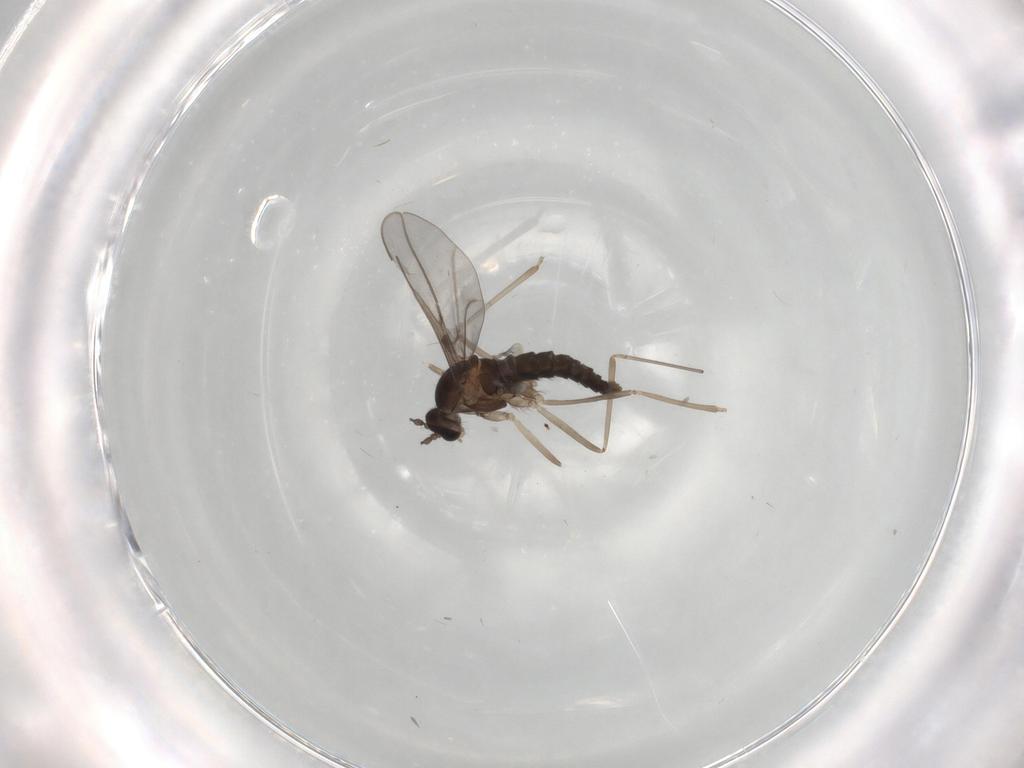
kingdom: Animalia
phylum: Arthropoda
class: Insecta
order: Diptera
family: Cecidomyiidae
